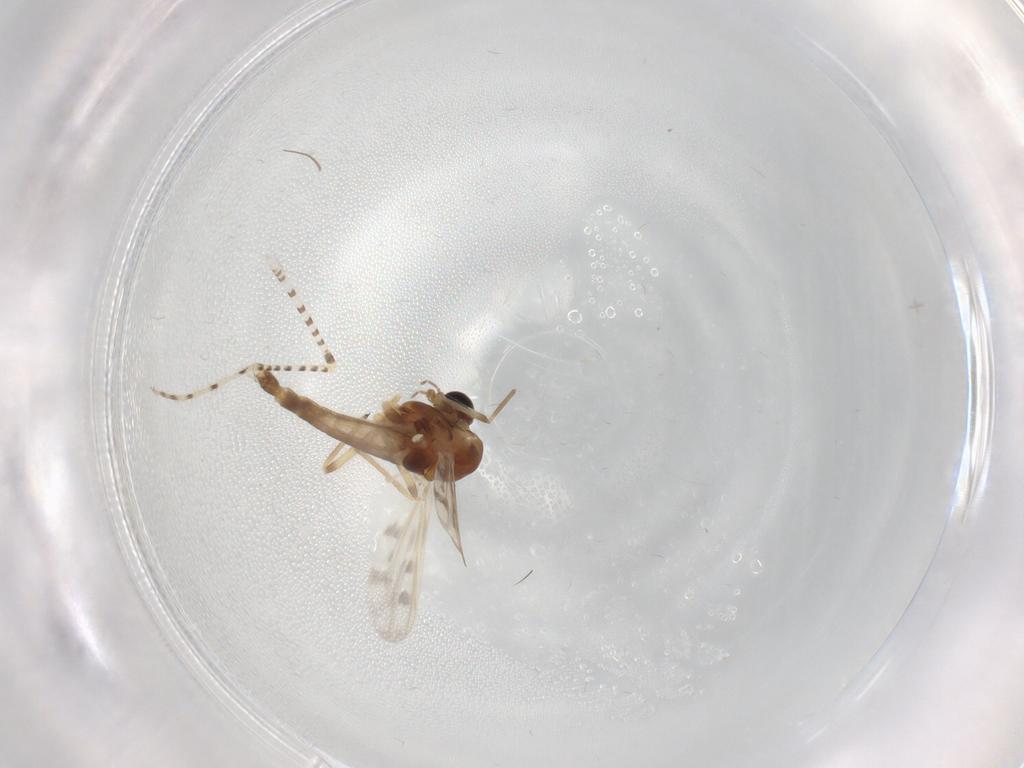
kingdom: Animalia
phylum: Arthropoda
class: Insecta
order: Diptera
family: Chironomidae
